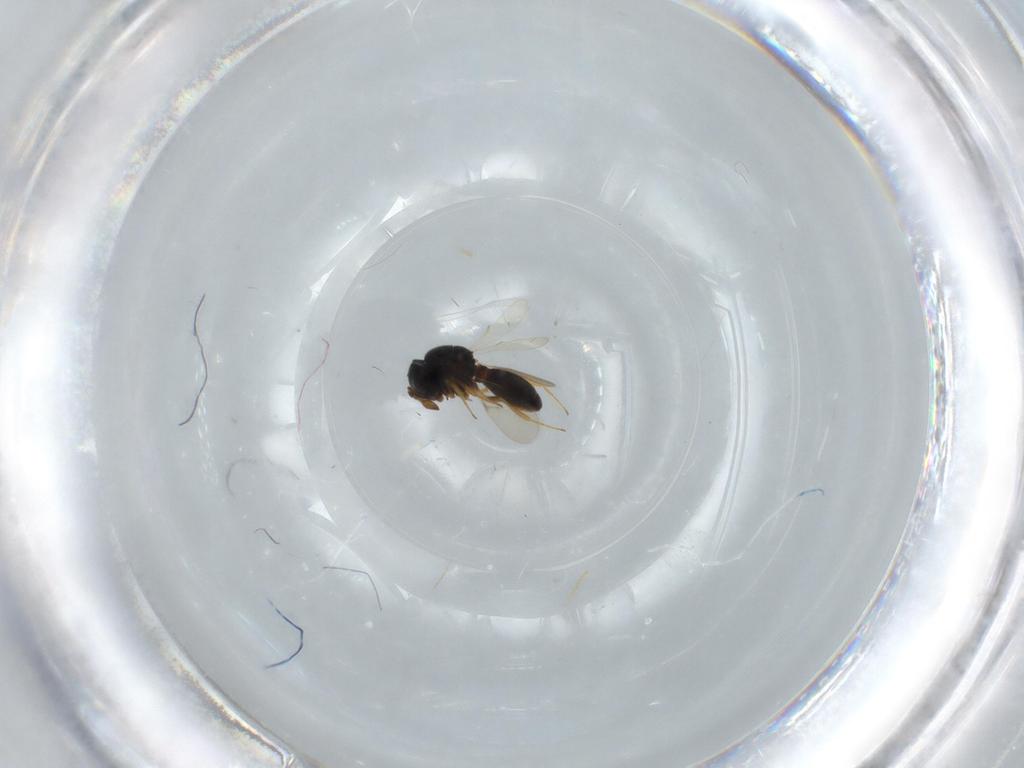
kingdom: Animalia
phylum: Arthropoda
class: Insecta
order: Hymenoptera
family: Scelionidae
